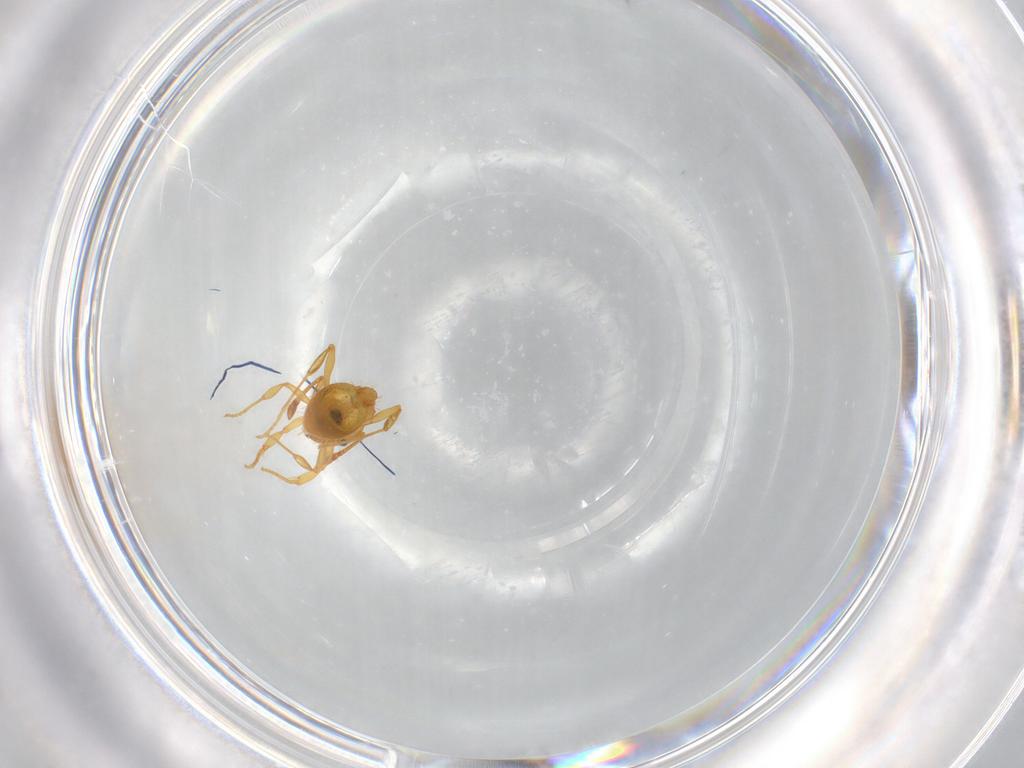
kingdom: Animalia
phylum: Arthropoda
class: Insecta
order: Hymenoptera
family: Formicidae
